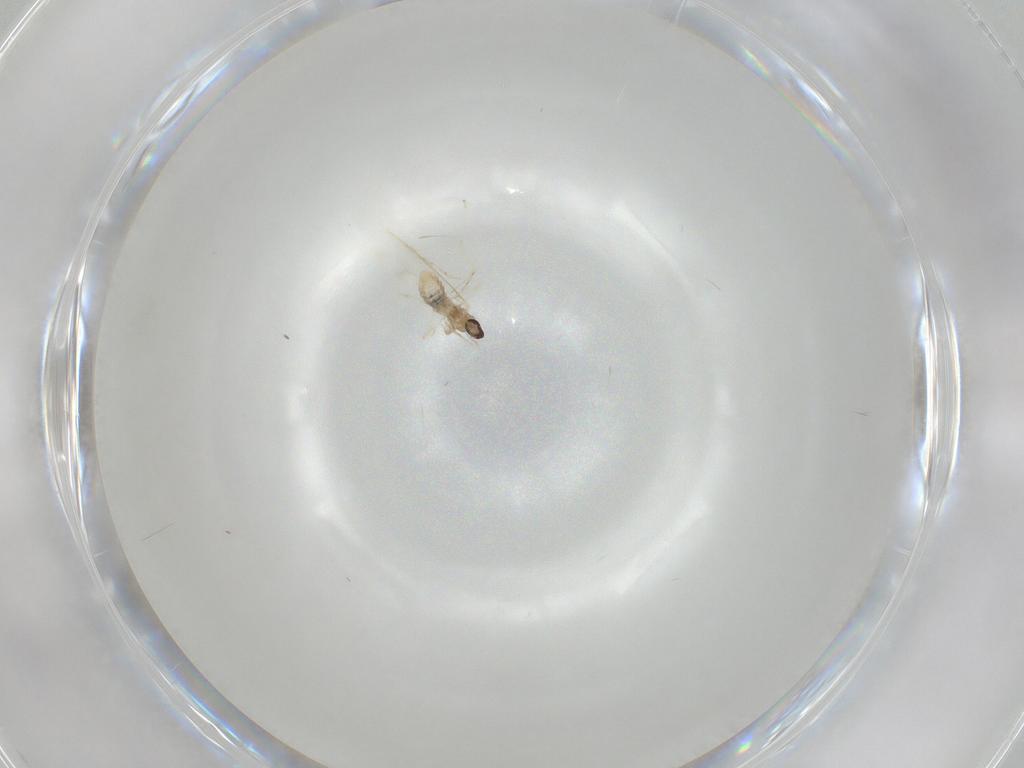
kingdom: Animalia
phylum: Arthropoda
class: Insecta
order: Diptera
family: Cecidomyiidae
